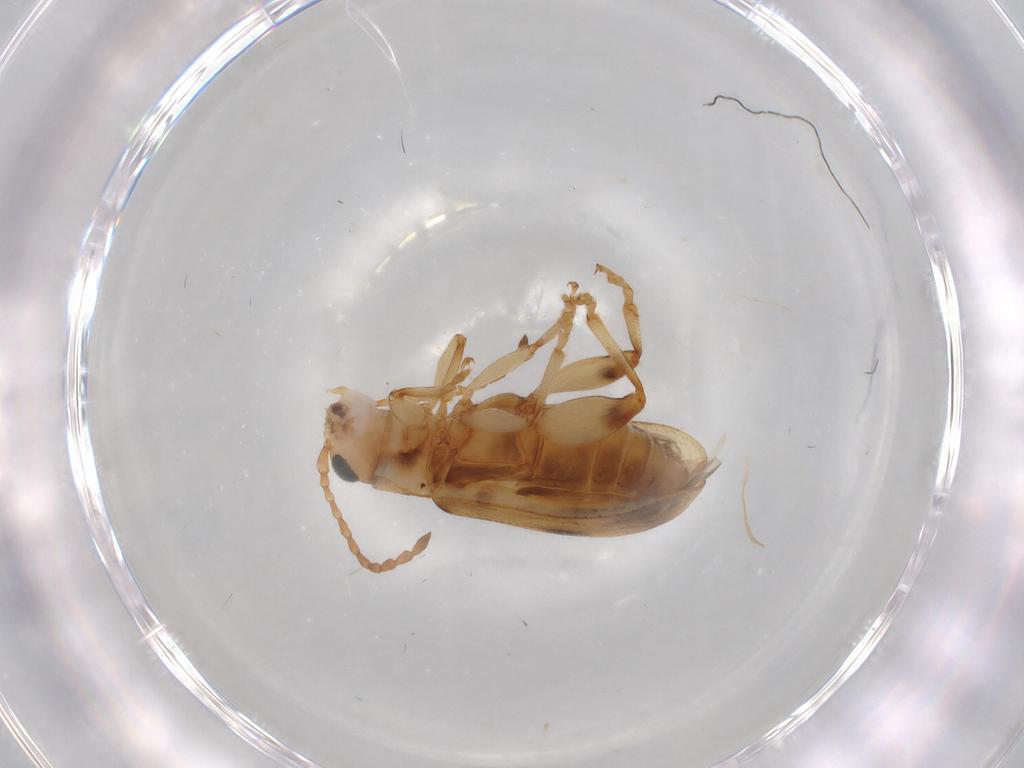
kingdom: Animalia
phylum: Arthropoda
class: Insecta
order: Coleoptera
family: Chrysomelidae
